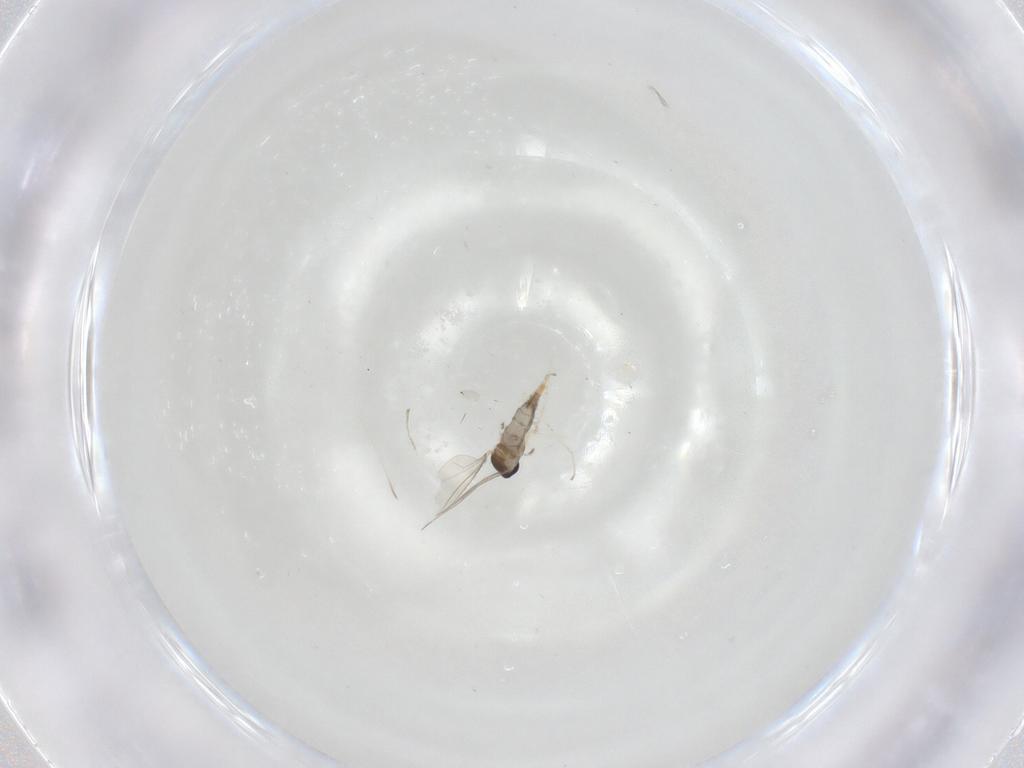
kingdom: Animalia
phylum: Arthropoda
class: Insecta
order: Diptera
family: Cecidomyiidae
